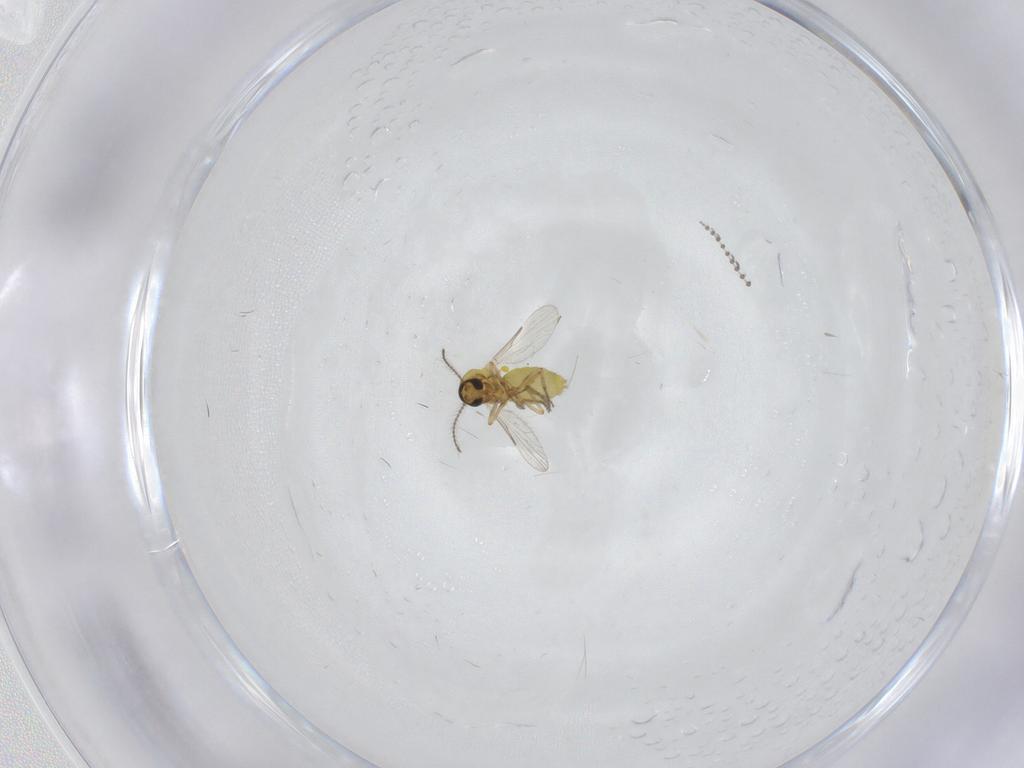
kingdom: Animalia
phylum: Arthropoda
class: Insecta
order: Diptera
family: Ceratopogonidae
